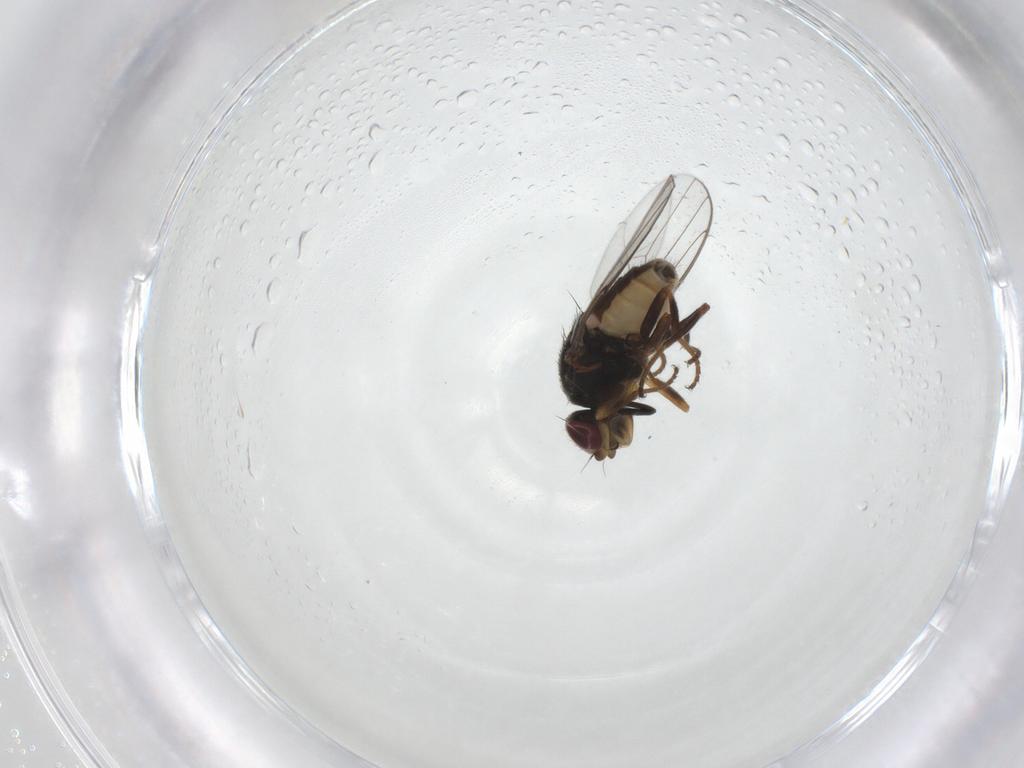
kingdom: Animalia
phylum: Arthropoda
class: Insecta
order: Diptera
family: Chloropidae
